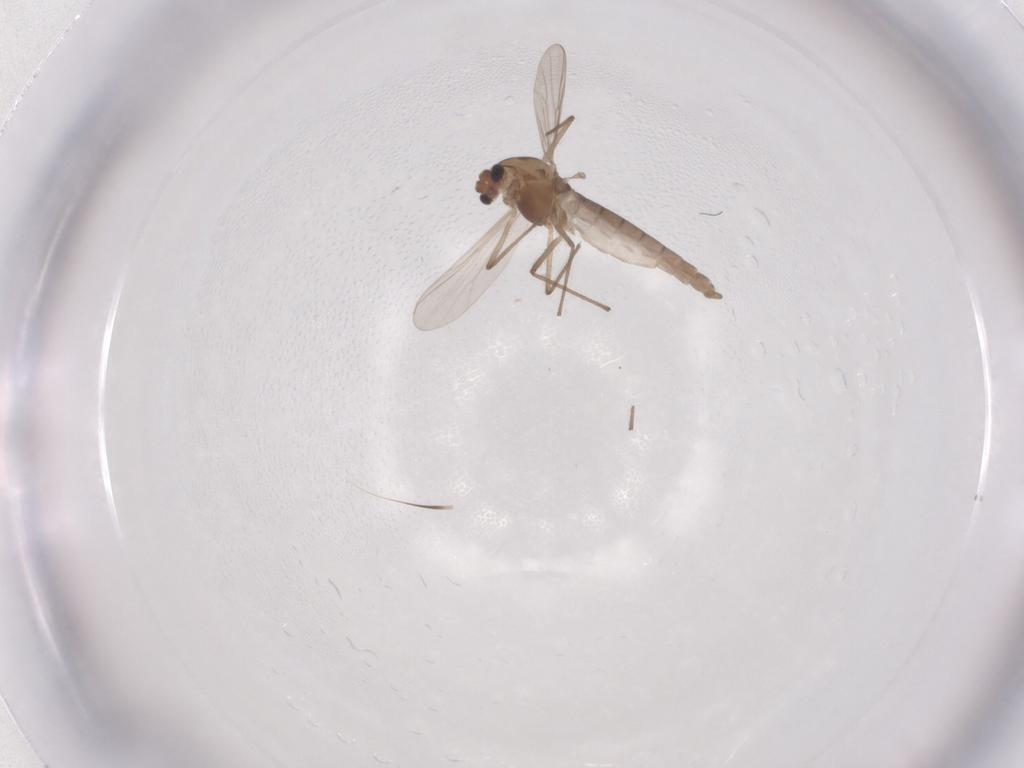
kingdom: Animalia
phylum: Arthropoda
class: Insecta
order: Diptera
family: Chironomidae
